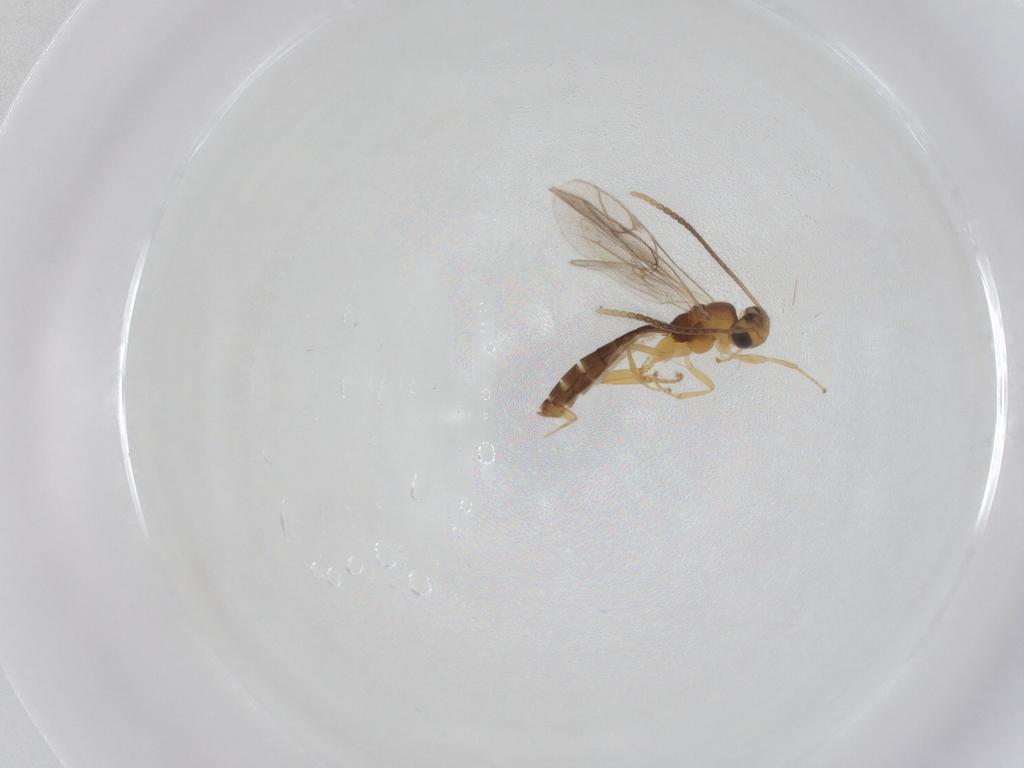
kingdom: Animalia
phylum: Arthropoda
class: Insecta
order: Hymenoptera
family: Ichneumonidae
